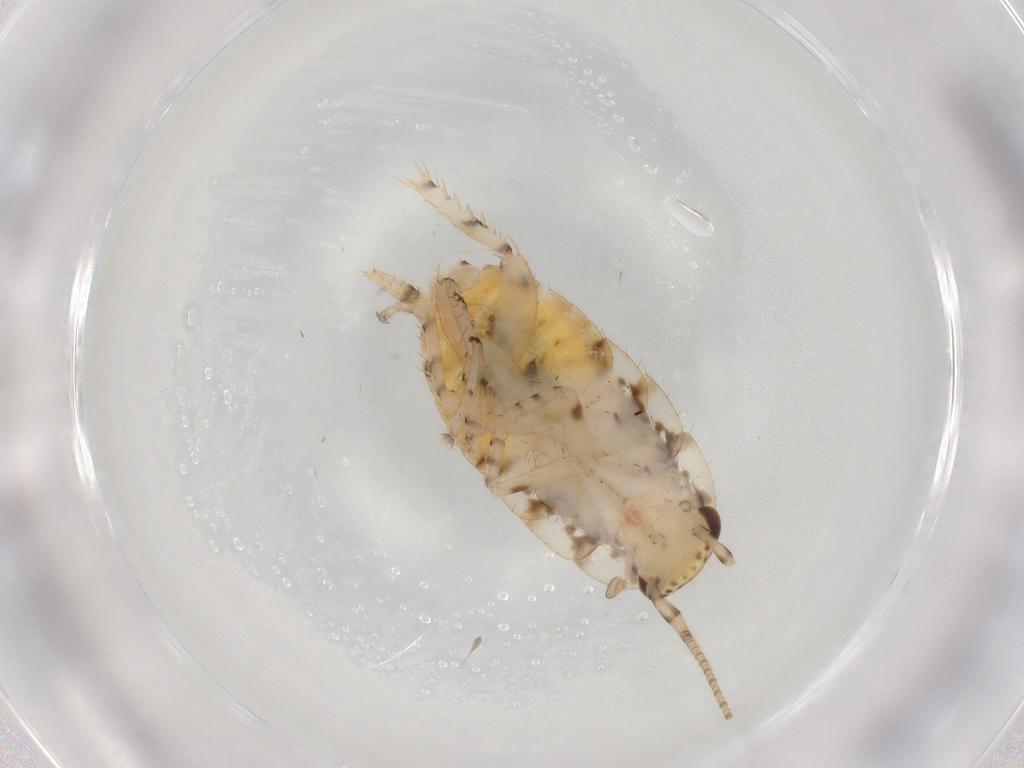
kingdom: Animalia
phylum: Arthropoda
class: Insecta
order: Blattodea
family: Ectobiidae
